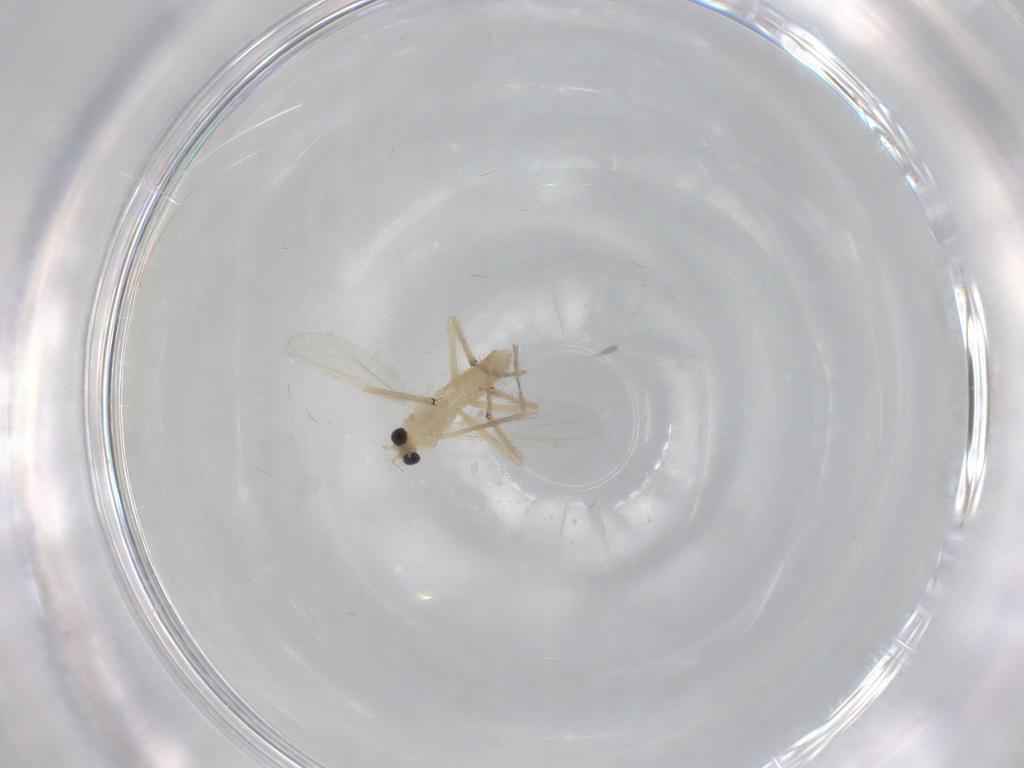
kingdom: Animalia
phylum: Arthropoda
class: Insecta
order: Diptera
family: Chironomidae
